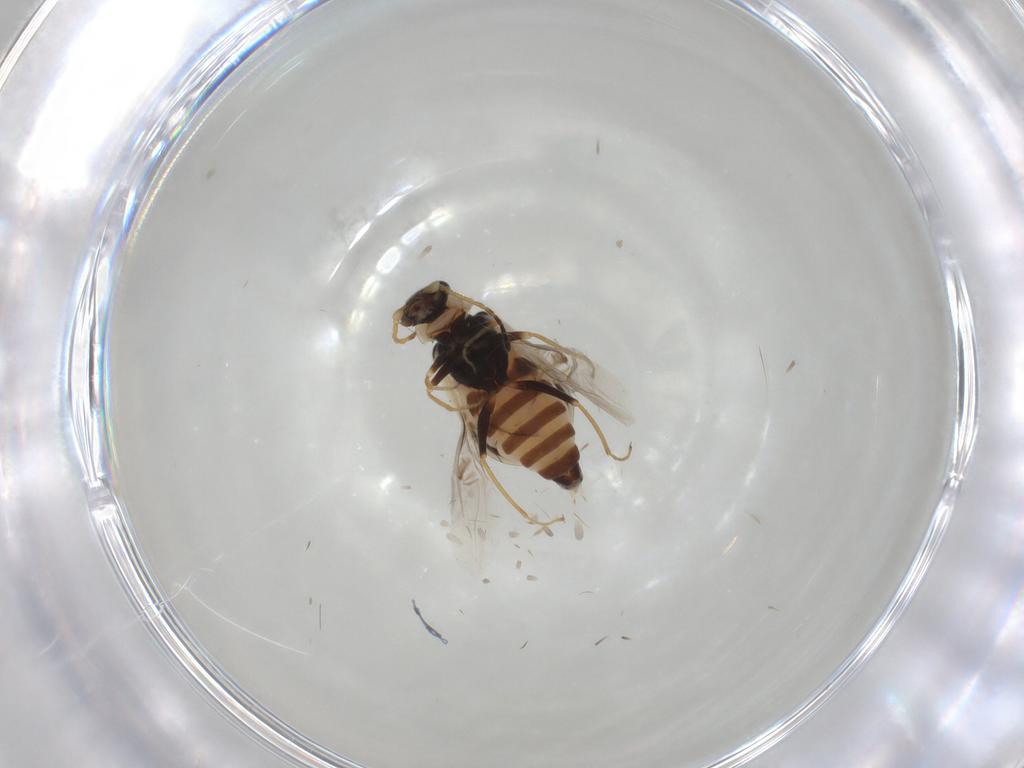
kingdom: Animalia
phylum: Arthropoda
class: Insecta
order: Coleoptera
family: Melyridae
